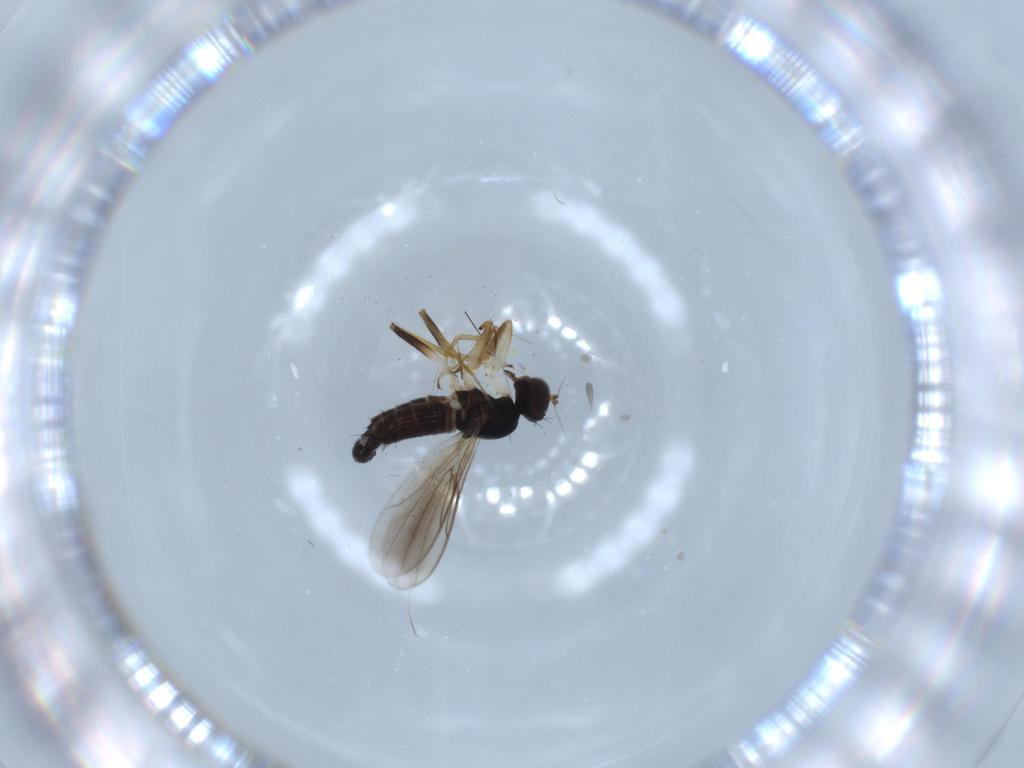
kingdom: Animalia
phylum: Arthropoda
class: Insecta
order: Diptera
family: Hybotidae
